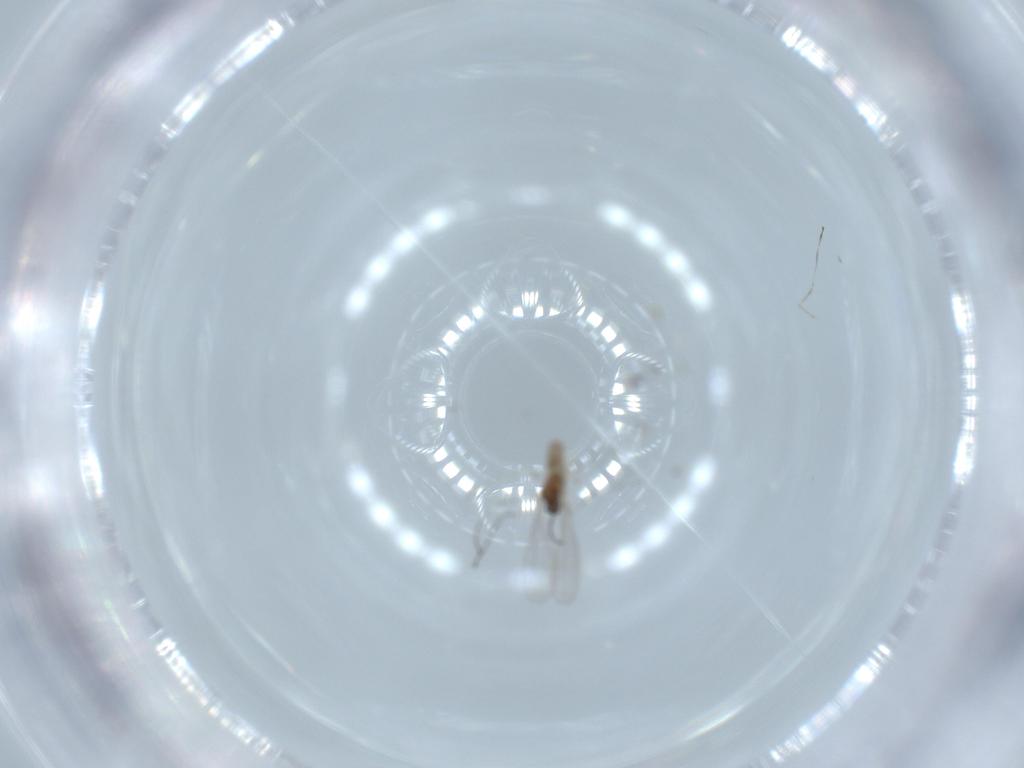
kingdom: Animalia
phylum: Arthropoda
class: Insecta
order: Diptera
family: Cecidomyiidae
